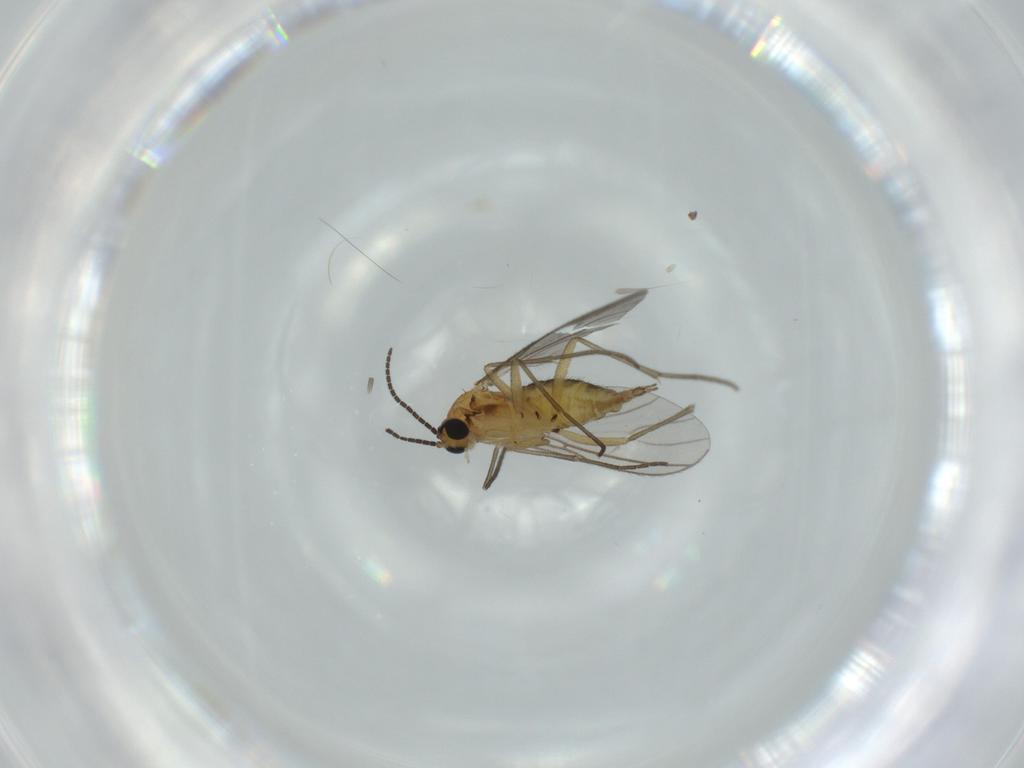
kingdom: Animalia
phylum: Arthropoda
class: Insecta
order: Diptera
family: Sciaridae
